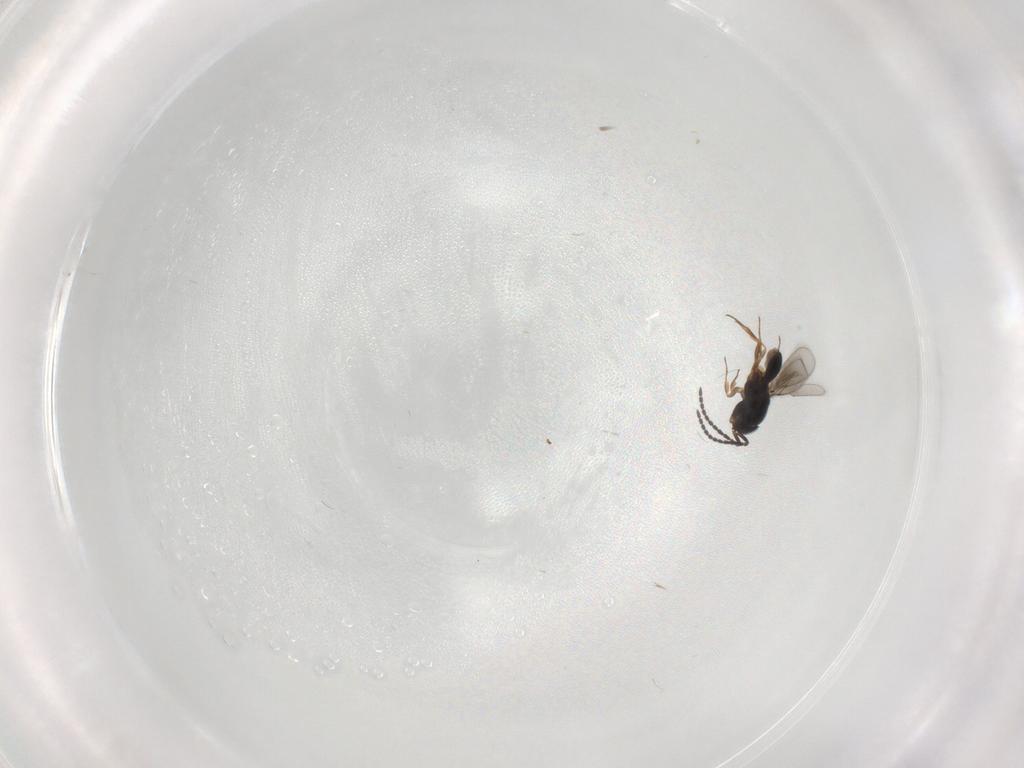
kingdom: Animalia
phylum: Arthropoda
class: Insecta
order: Hymenoptera
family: Scelionidae
